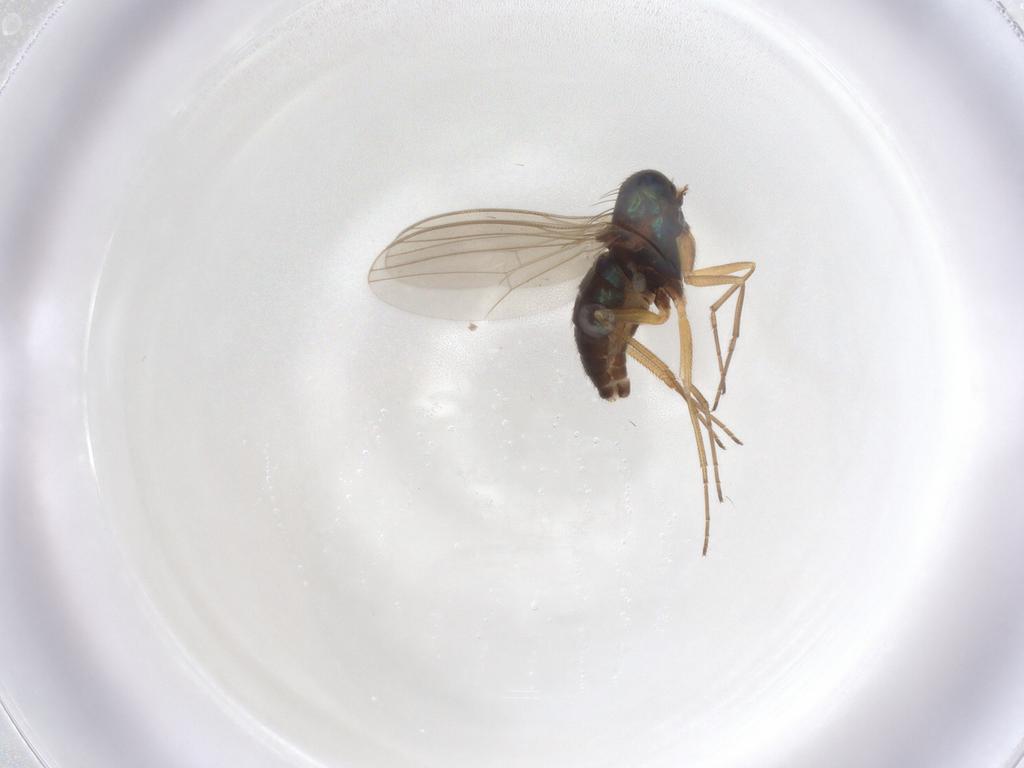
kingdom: Animalia
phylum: Arthropoda
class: Insecta
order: Diptera
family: Dolichopodidae
